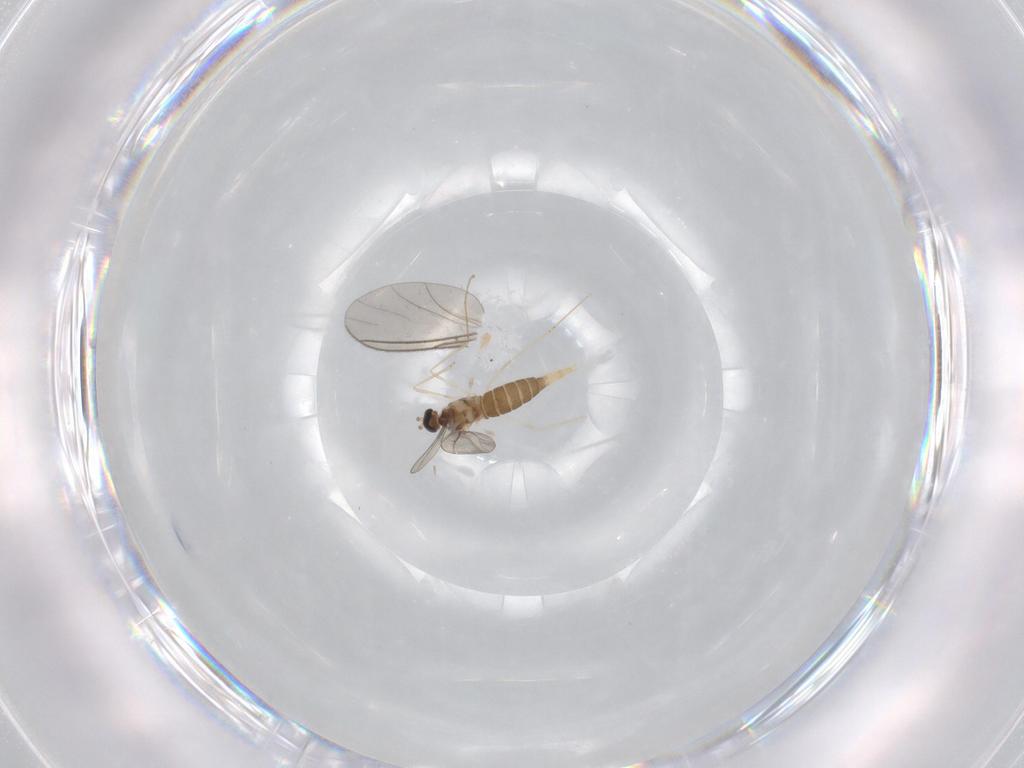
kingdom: Animalia
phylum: Arthropoda
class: Insecta
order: Diptera
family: Cecidomyiidae
